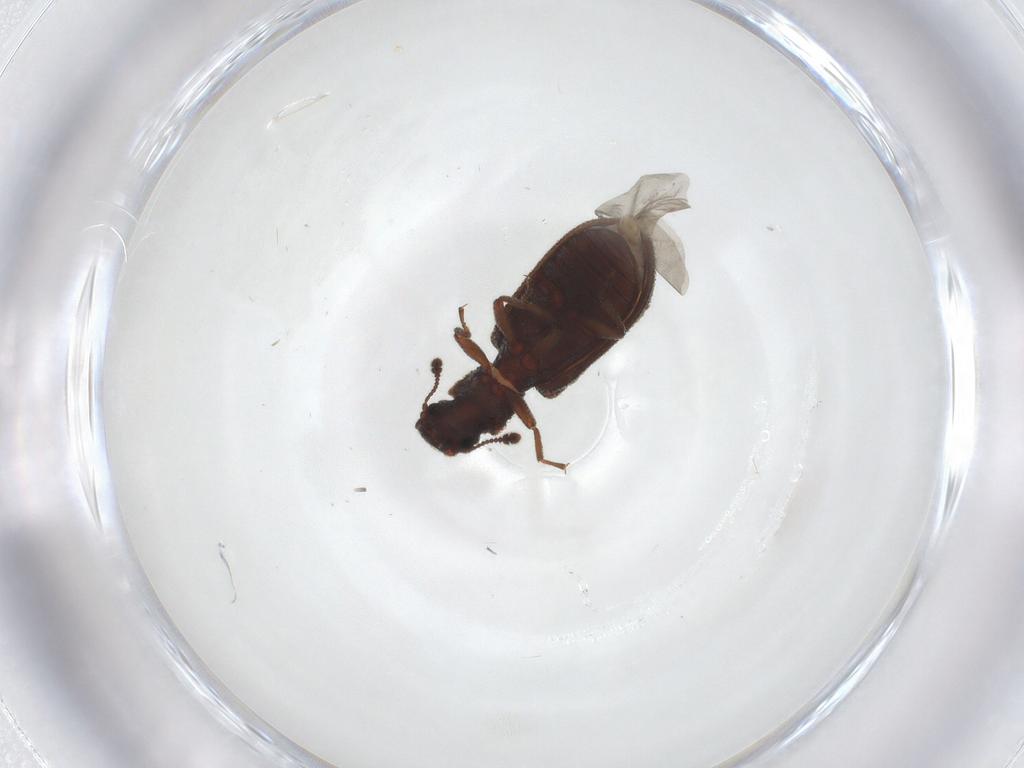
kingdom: Animalia
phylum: Arthropoda
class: Insecta
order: Coleoptera
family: Zopheridae
